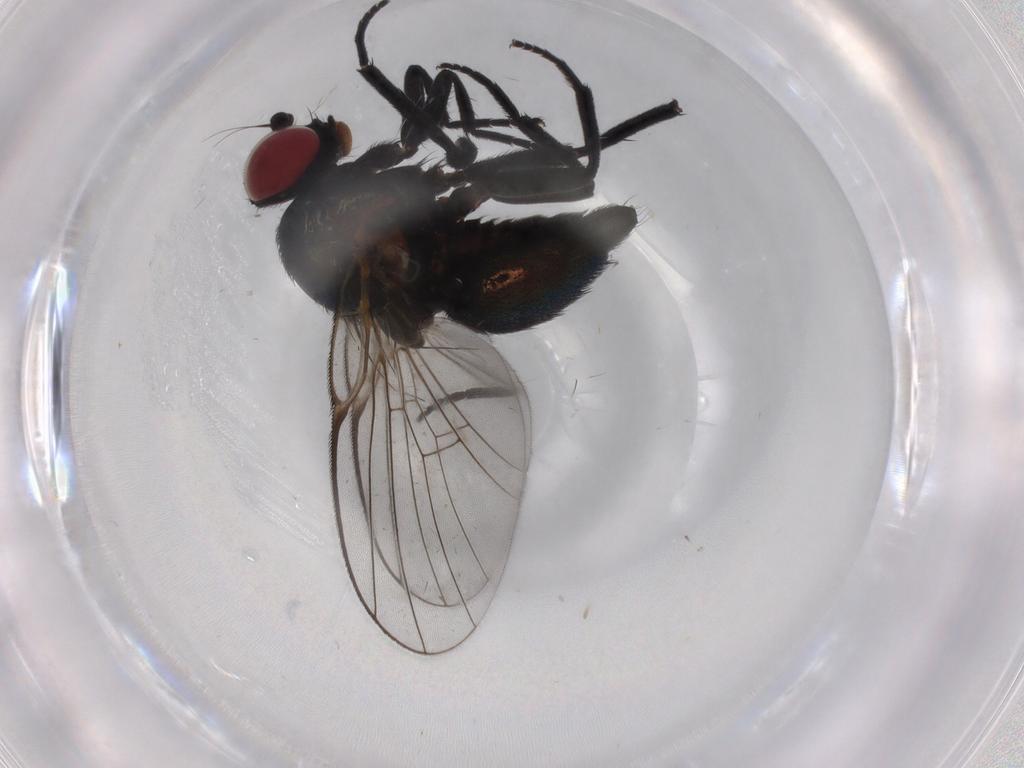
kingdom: Animalia
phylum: Arthropoda
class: Insecta
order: Diptera
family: Agromyzidae
